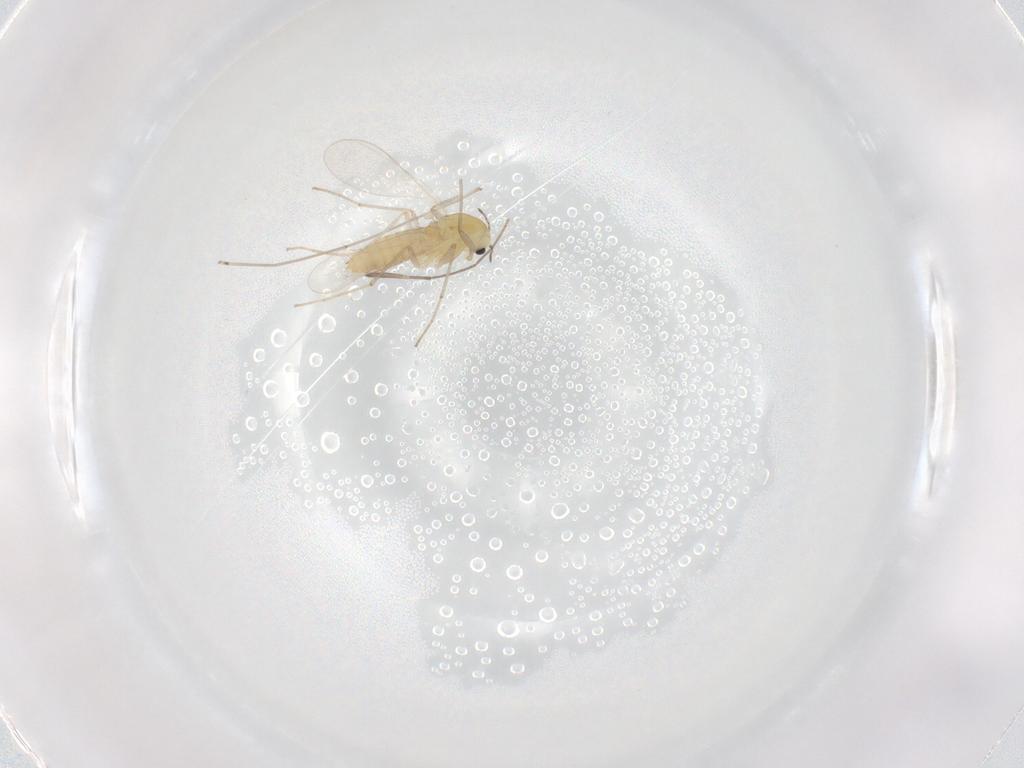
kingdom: Animalia
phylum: Arthropoda
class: Insecta
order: Diptera
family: Chironomidae
